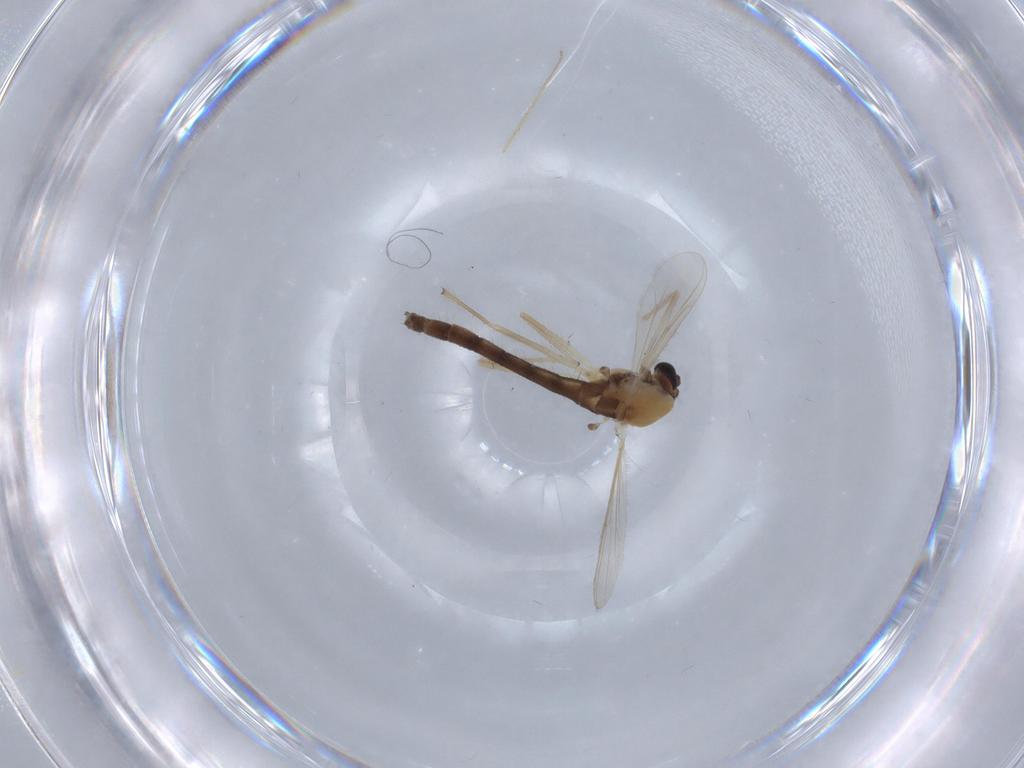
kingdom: Animalia
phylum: Arthropoda
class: Insecta
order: Diptera
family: Chironomidae
